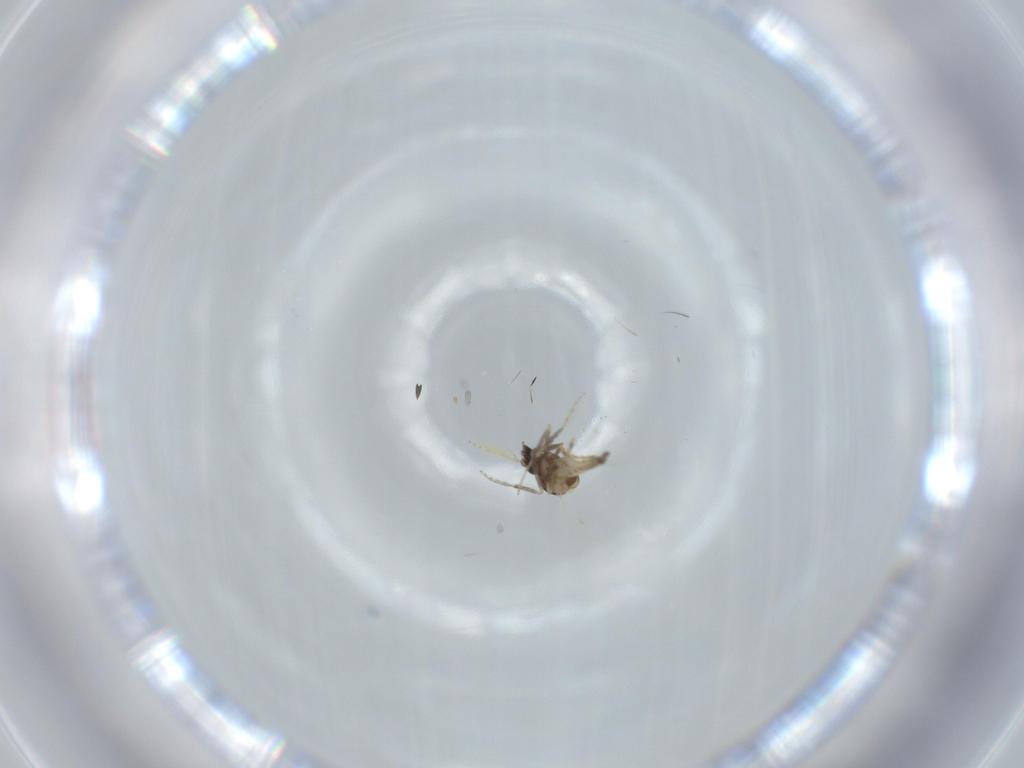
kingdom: Animalia
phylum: Arthropoda
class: Insecta
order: Diptera
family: Ceratopogonidae
